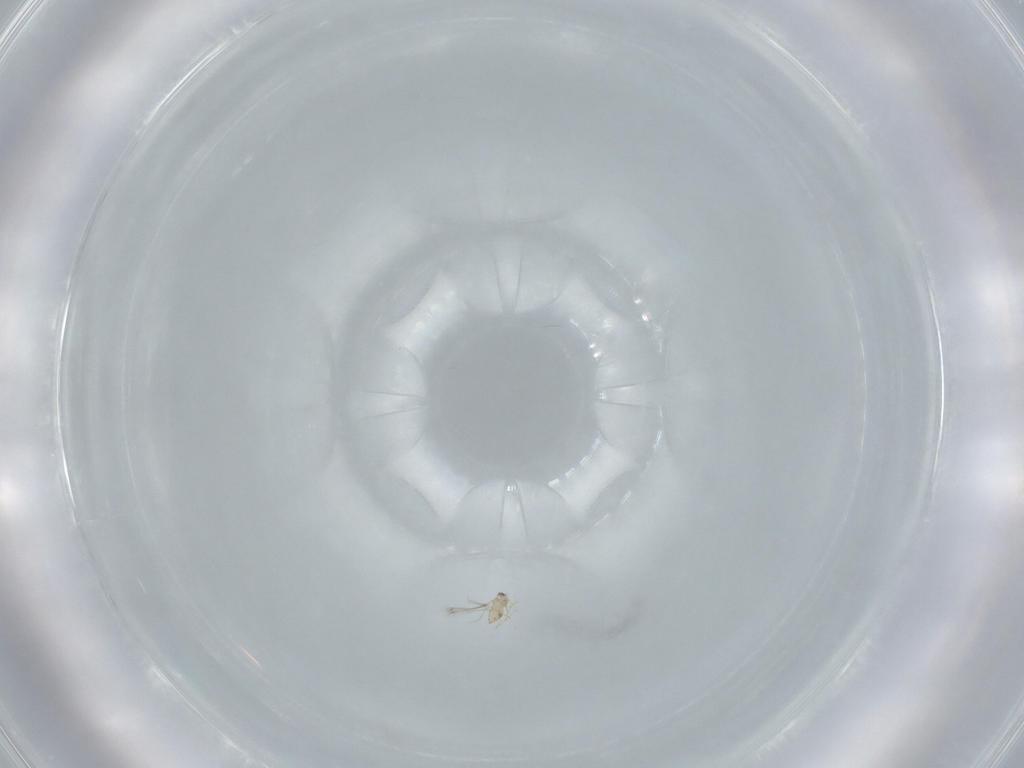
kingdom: Animalia
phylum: Arthropoda
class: Insecta
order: Hymenoptera
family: Mymaridae
